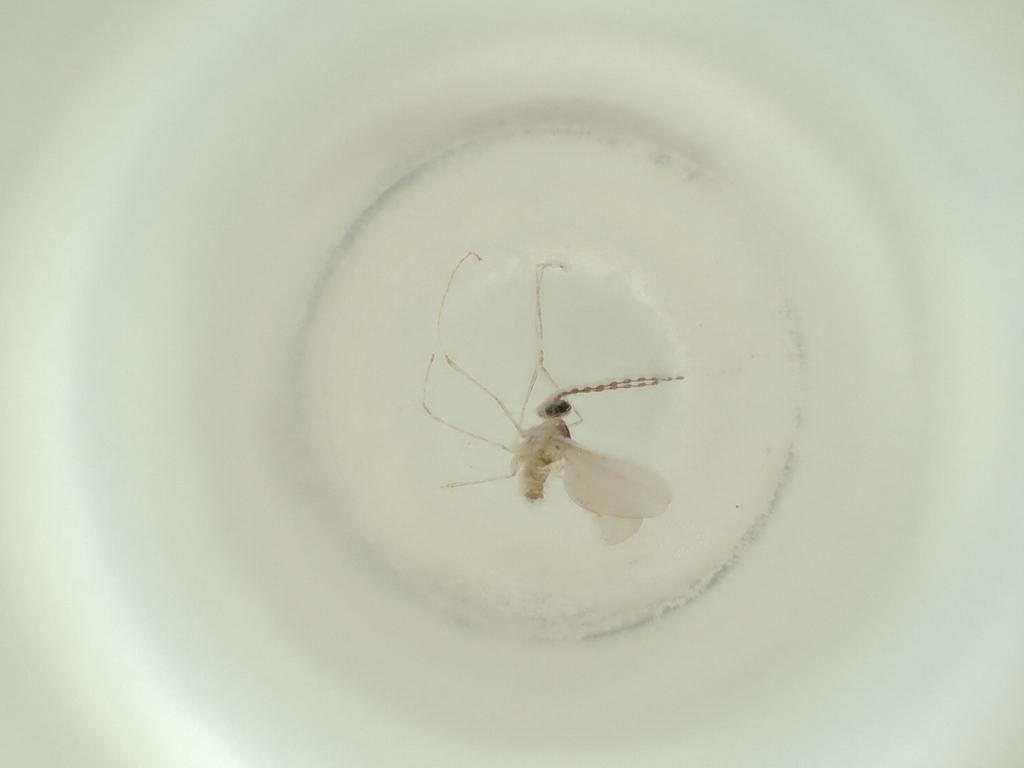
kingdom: Animalia
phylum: Arthropoda
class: Insecta
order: Diptera
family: Cecidomyiidae
